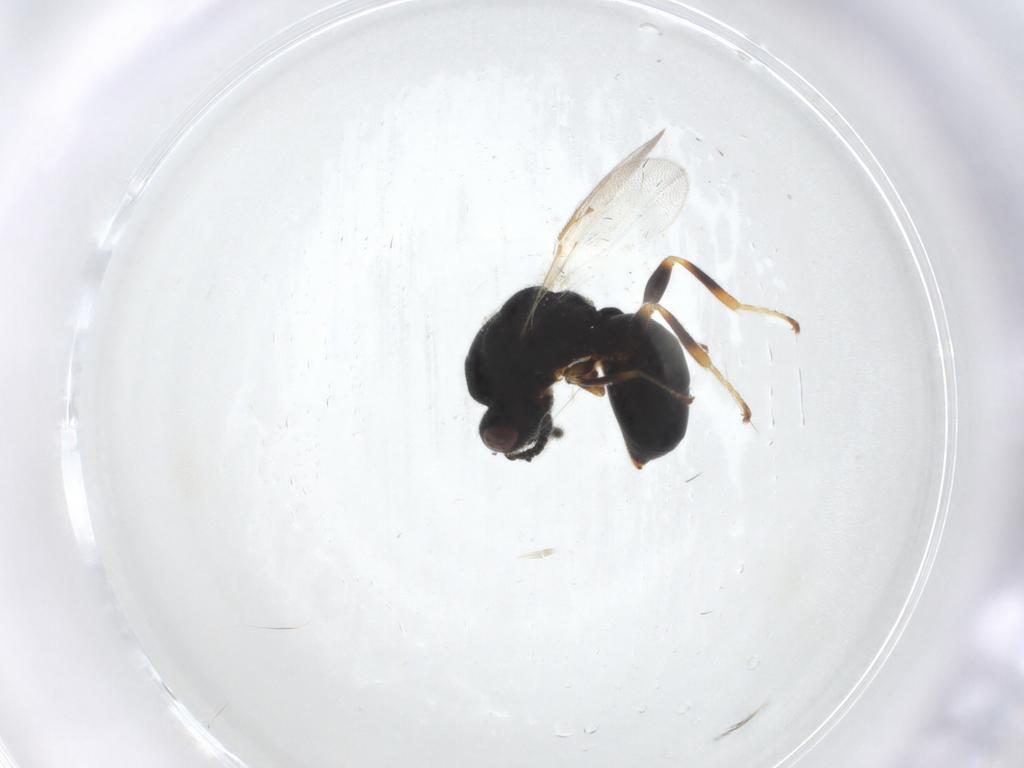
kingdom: Animalia
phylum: Arthropoda
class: Insecta
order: Hymenoptera
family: Eurytomidae
